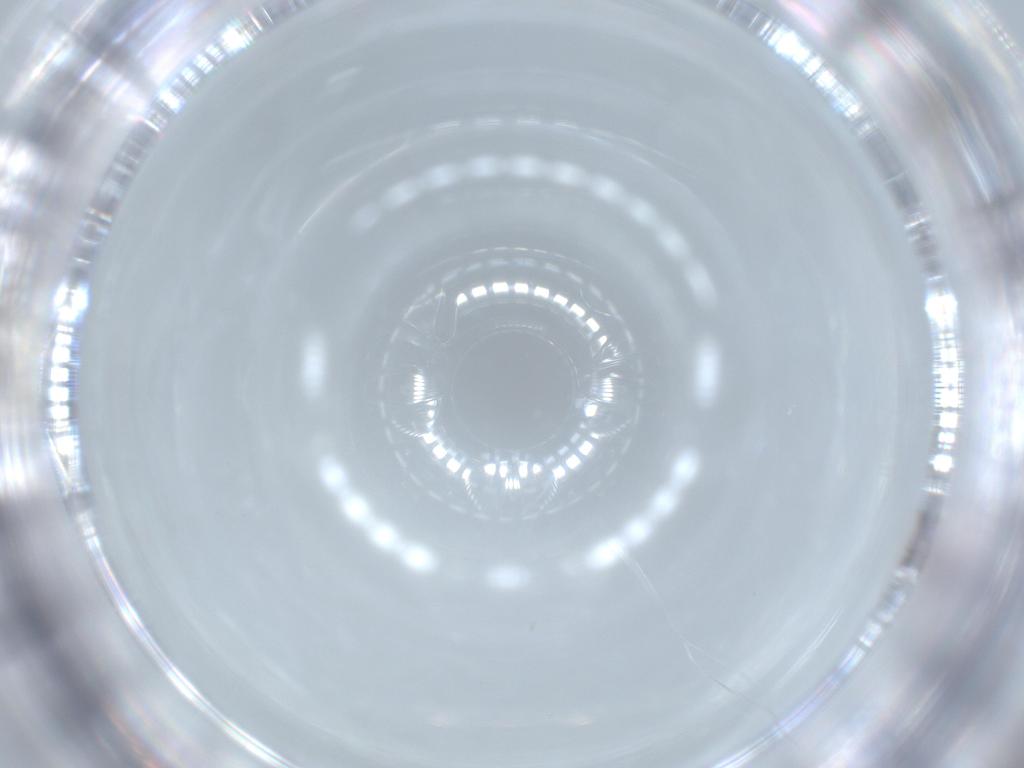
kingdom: Animalia
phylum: Arthropoda
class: Insecta
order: Thysanoptera
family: Phlaeothripidae
